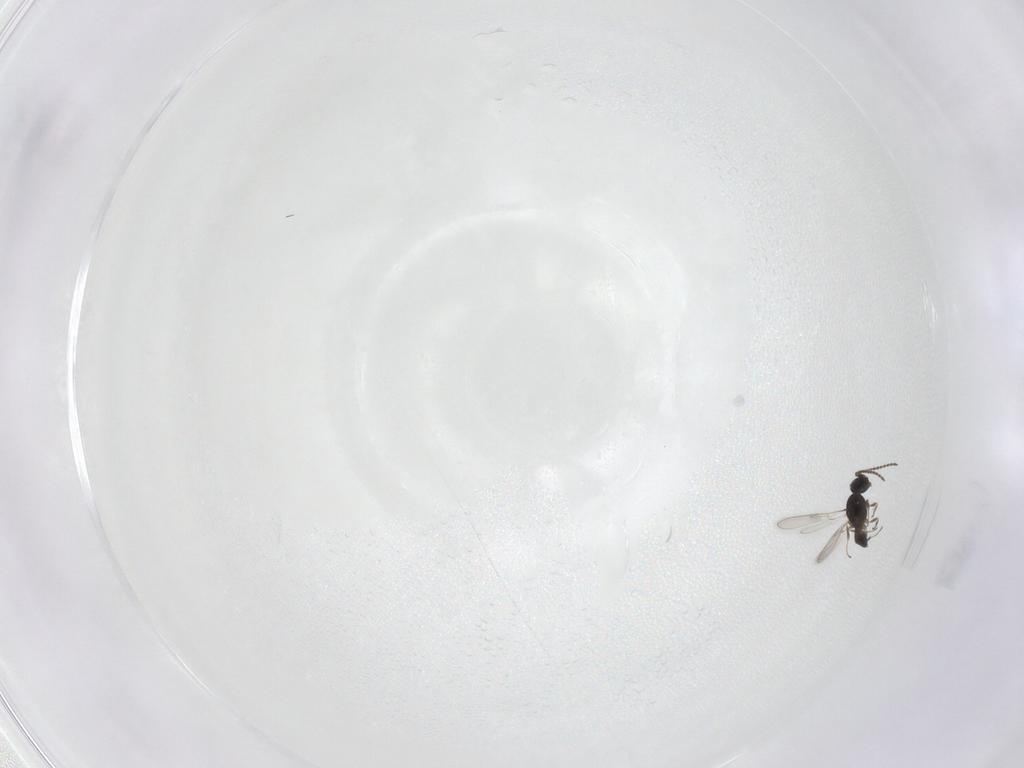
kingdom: Animalia
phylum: Arthropoda
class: Insecta
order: Hymenoptera
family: Scelionidae
